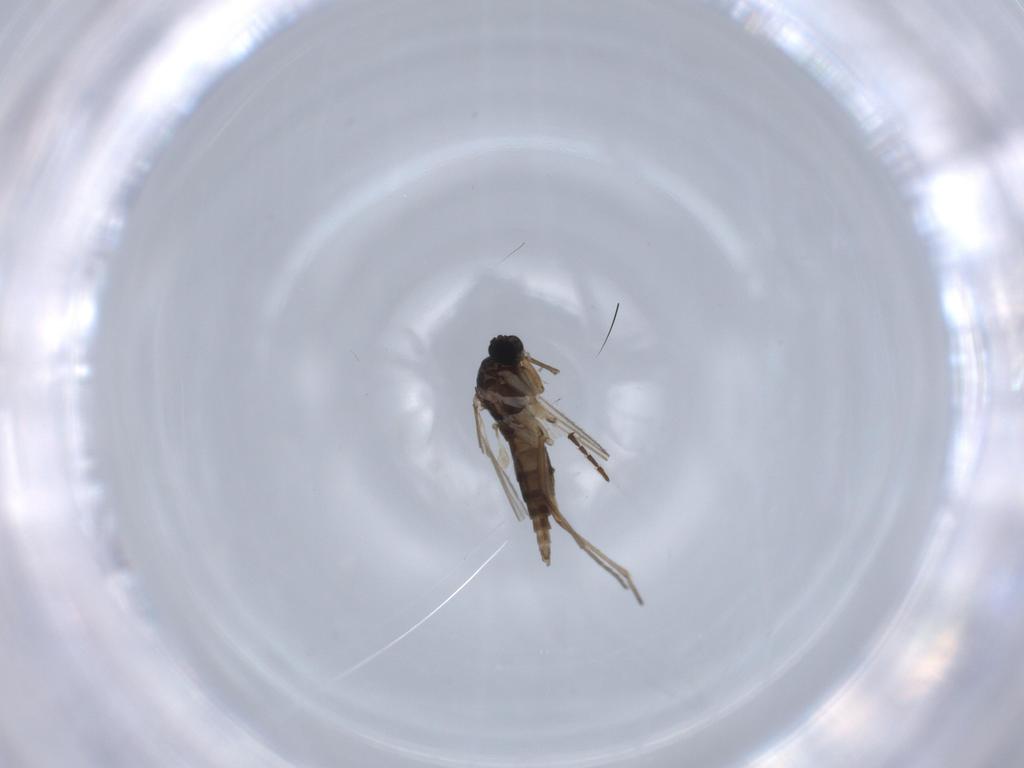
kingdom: Animalia
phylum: Arthropoda
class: Insecta
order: Diptera
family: Sciaridae
